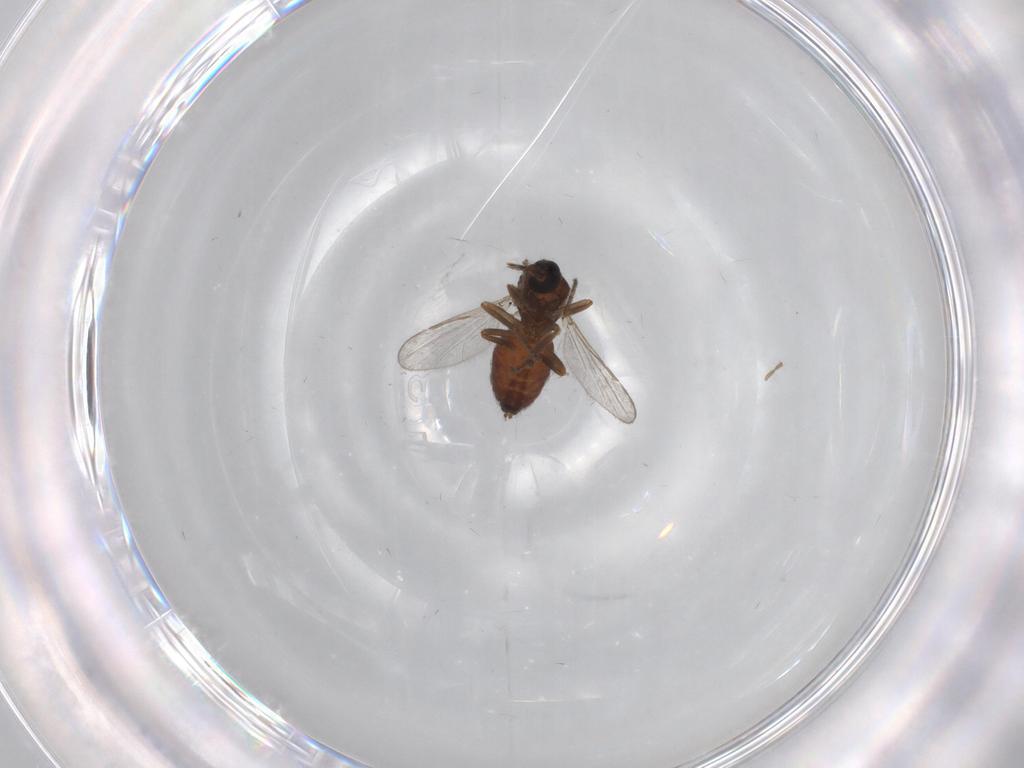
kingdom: Animalia
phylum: Arthropoda
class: Insecta
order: Diptera
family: Ceratopogonidae
